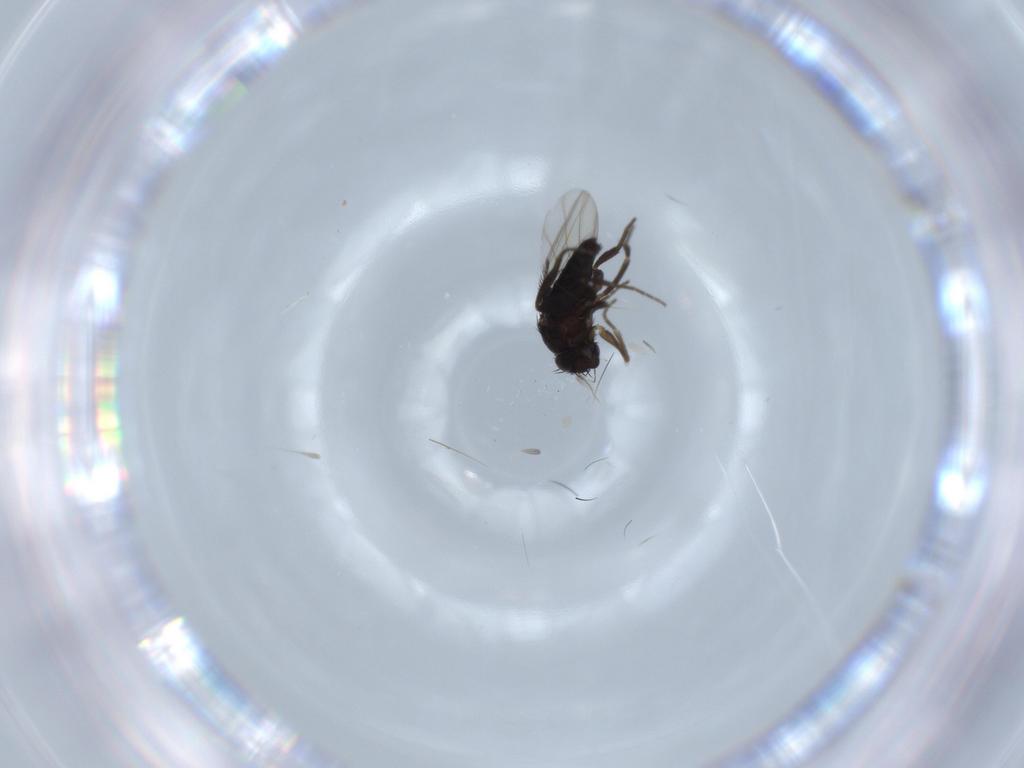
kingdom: Animalia
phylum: Arthropoda
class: Insecta
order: Diptera
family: Phoridae
